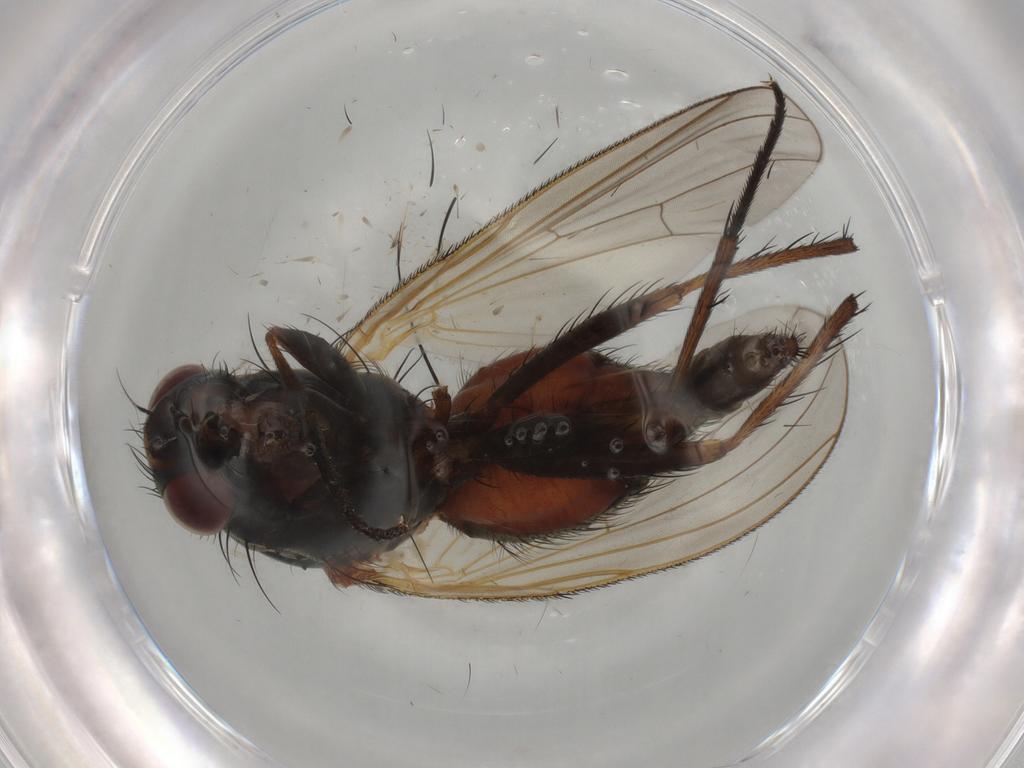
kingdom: Animalia
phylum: Arthropoda
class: Insecta
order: Diptera
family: Anthomyiidae
